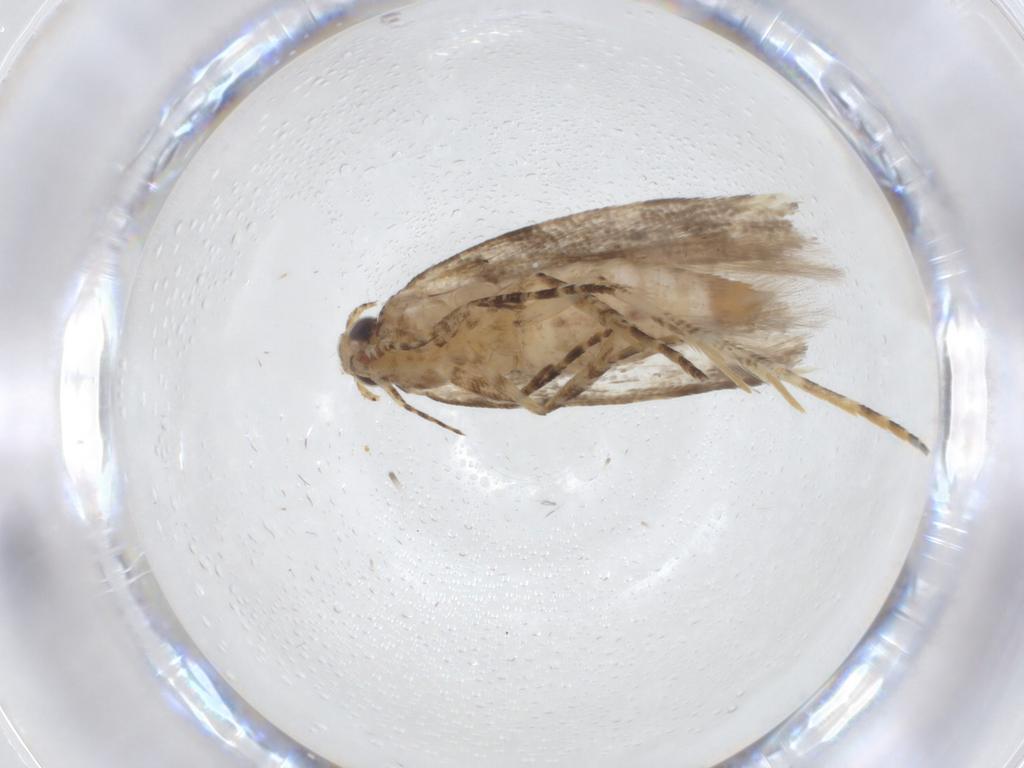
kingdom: Animalia
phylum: Arthropoda
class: Insecta
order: Lepidoptera
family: Gelechiidae
